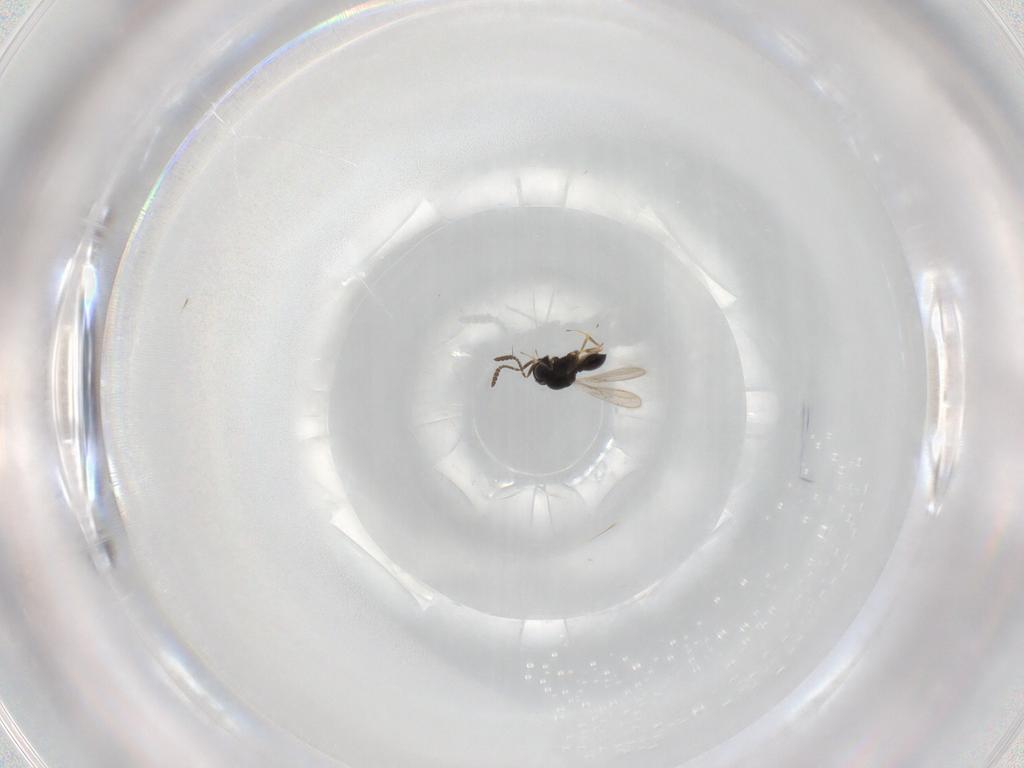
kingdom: Animalia
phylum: Arthropoda
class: Insecta
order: Hymenoptera
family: Scelionidae
